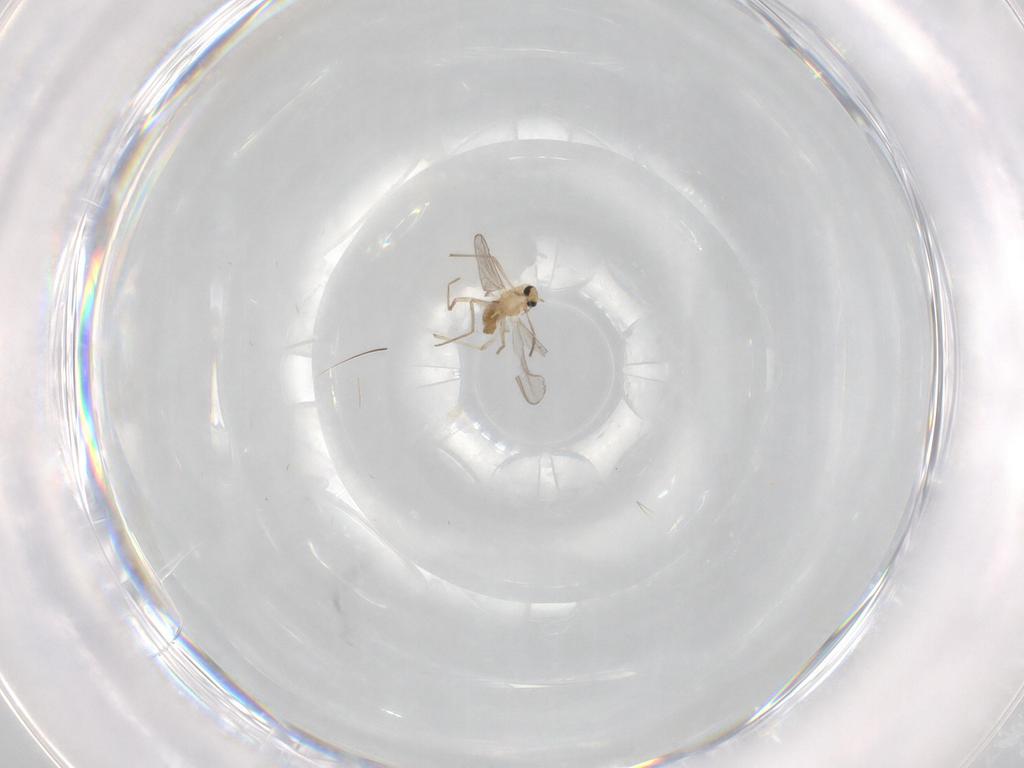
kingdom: Animalia
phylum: Arthropoda
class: Insecta
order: Diptera
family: Chironomidae
